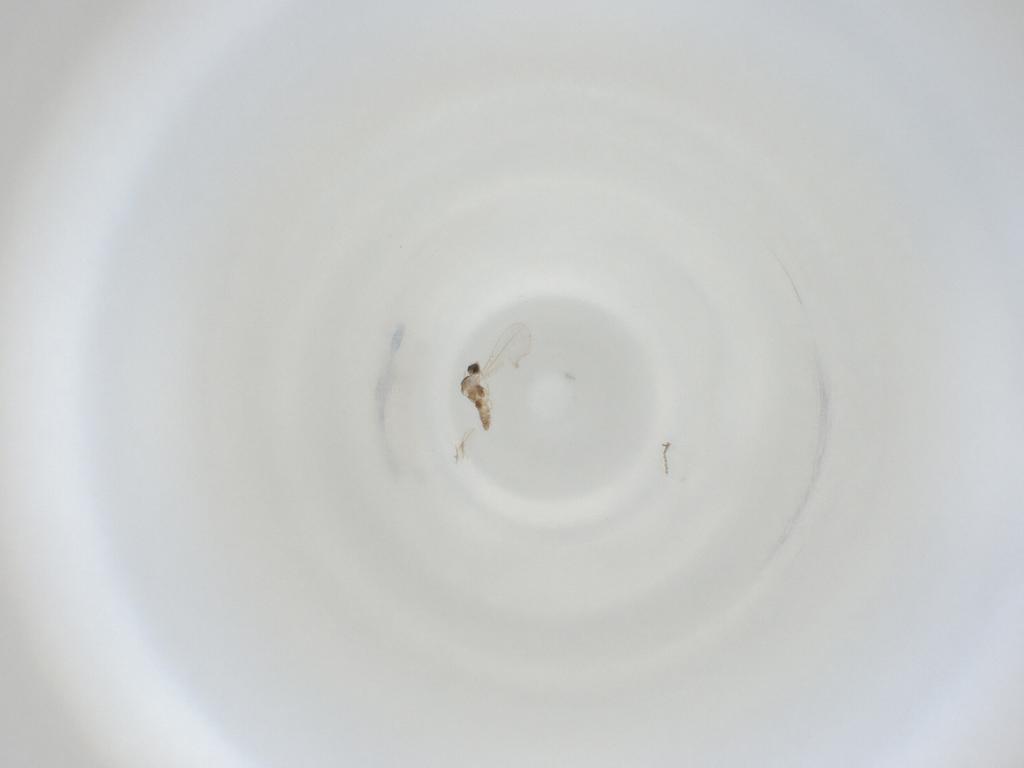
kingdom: Animalia
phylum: Arthropoda
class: Insecta
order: Diptera
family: Cecidomyiidae
